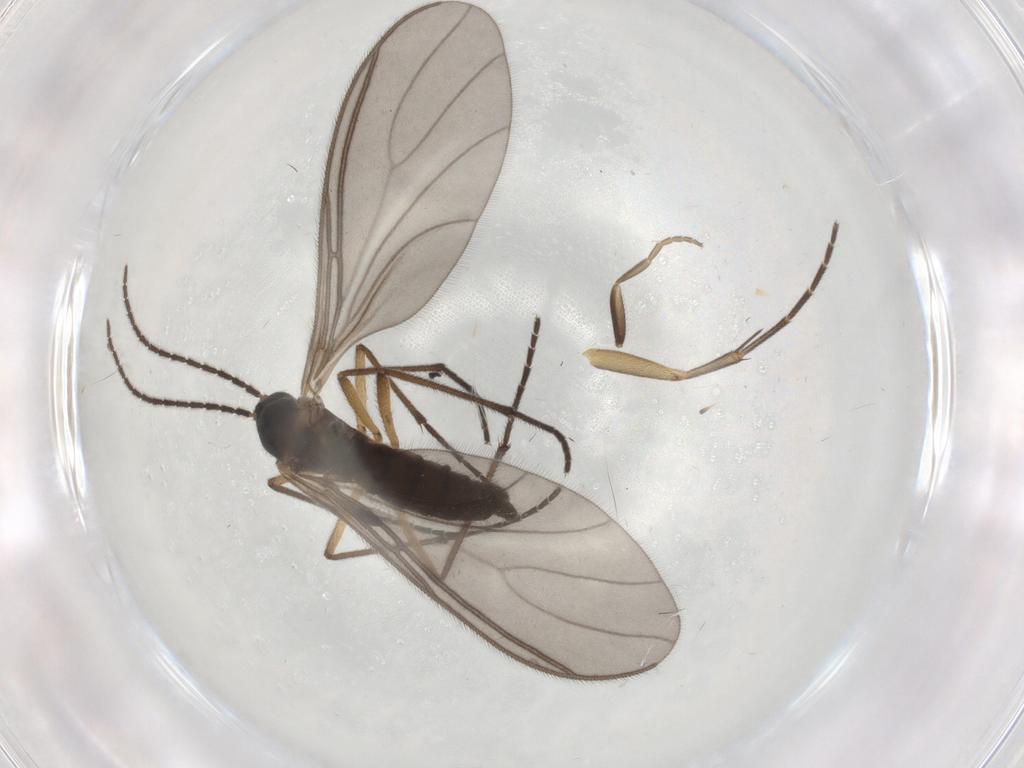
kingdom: Animalia
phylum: Arthropoda
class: Insecta
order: Diptera
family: Sciaridae
